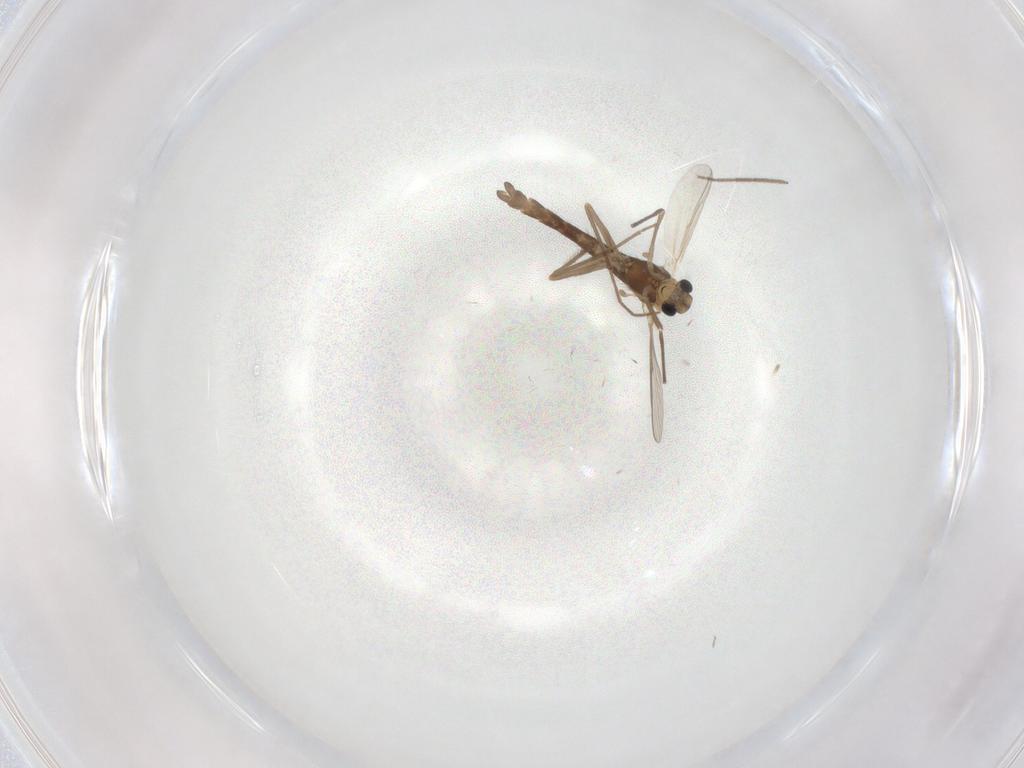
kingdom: Animalia
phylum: Arthropoda
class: Insecta
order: Diptera
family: Chironomidae
